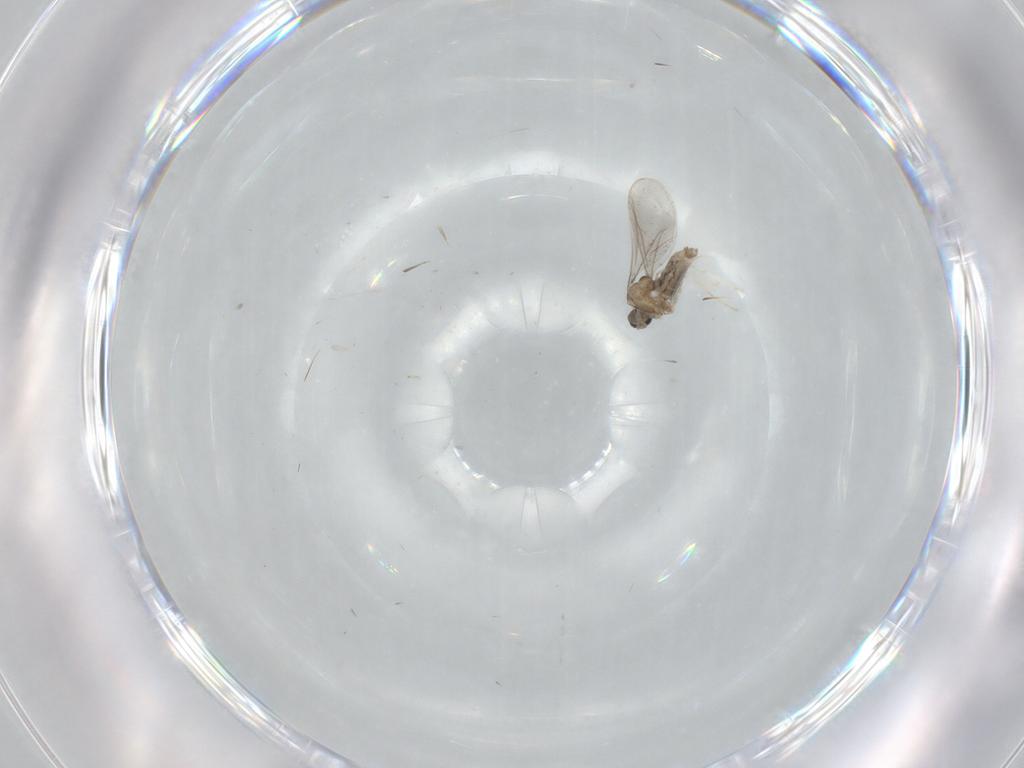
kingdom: Animalia
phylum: Arthropoda
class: Insecta
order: Diptera
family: Cecidomyiidae
